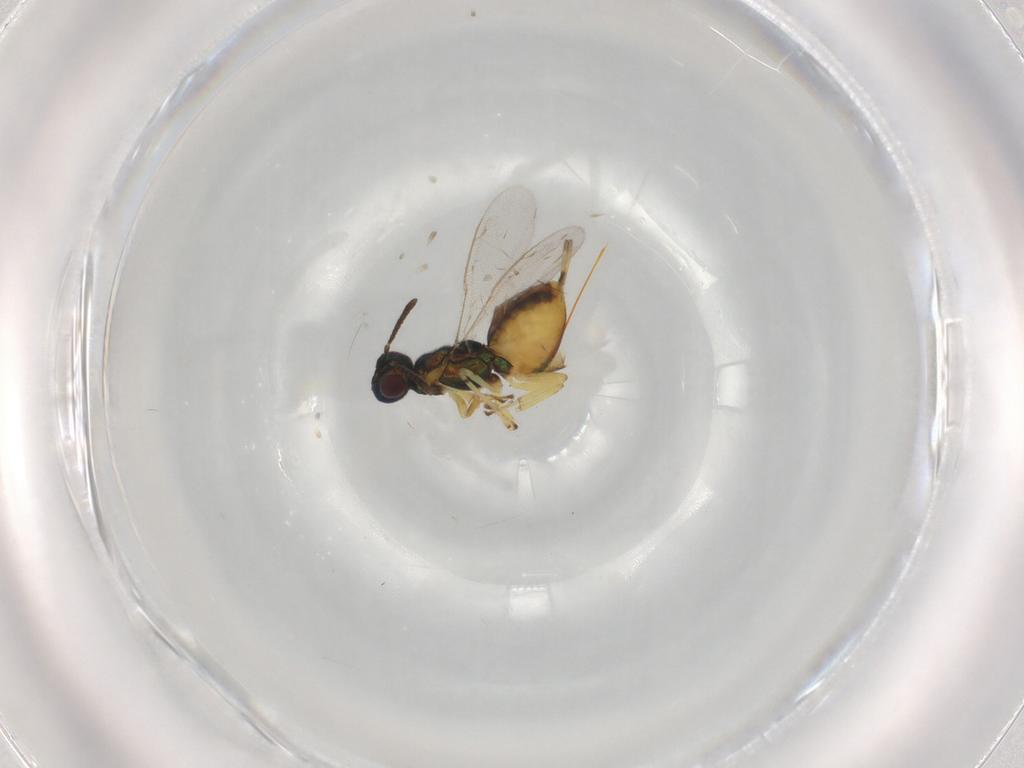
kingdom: Animalia
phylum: Arthropoda
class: Insecta
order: Hymenoptera
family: Eupelmidae
